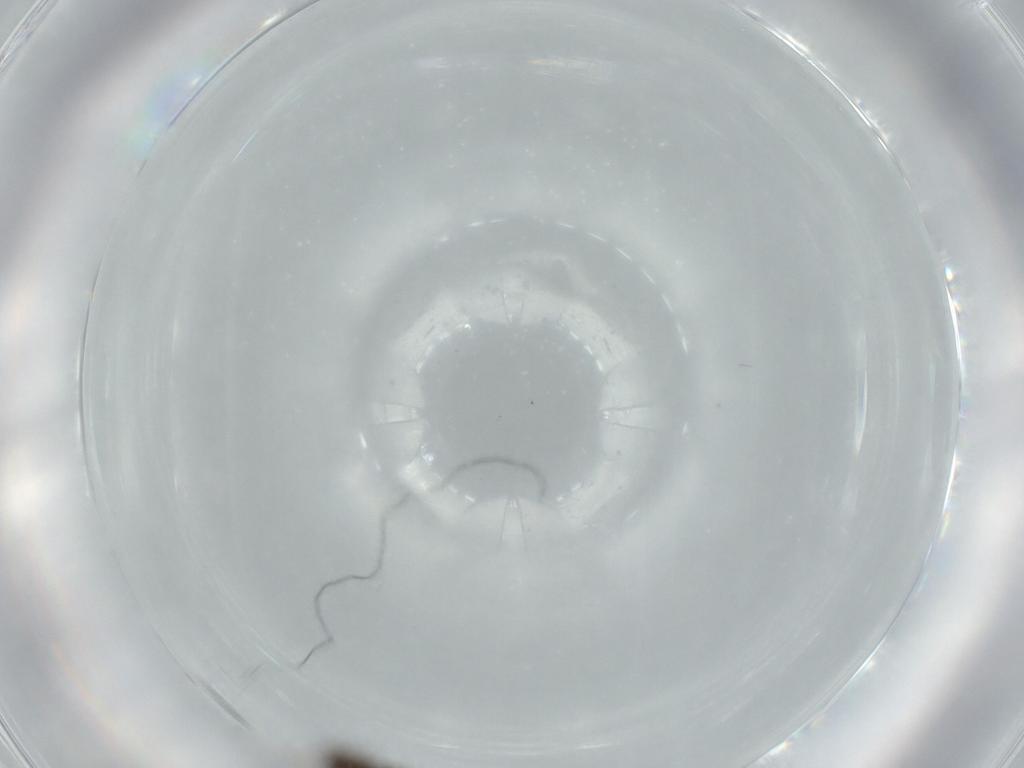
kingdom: Animalia
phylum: Arthropoda
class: Insecta
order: Diptera
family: Psychodidae
